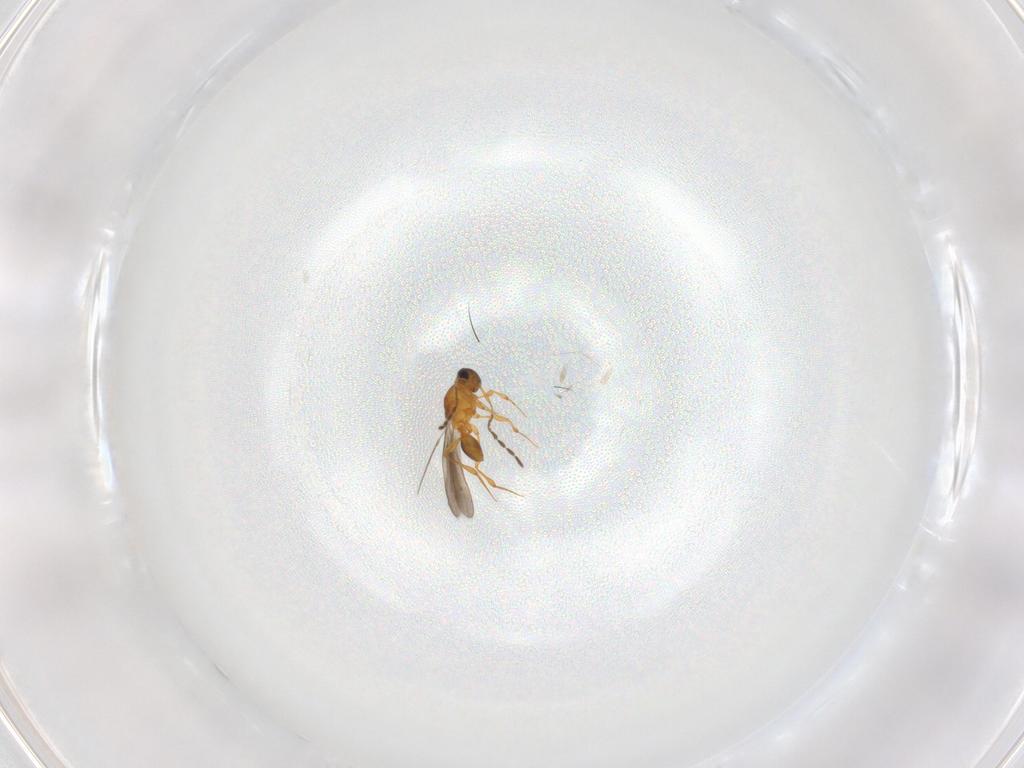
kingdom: Animalia
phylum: Arthropoda
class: Insecta
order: Hymenoptera
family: Platygastridae
